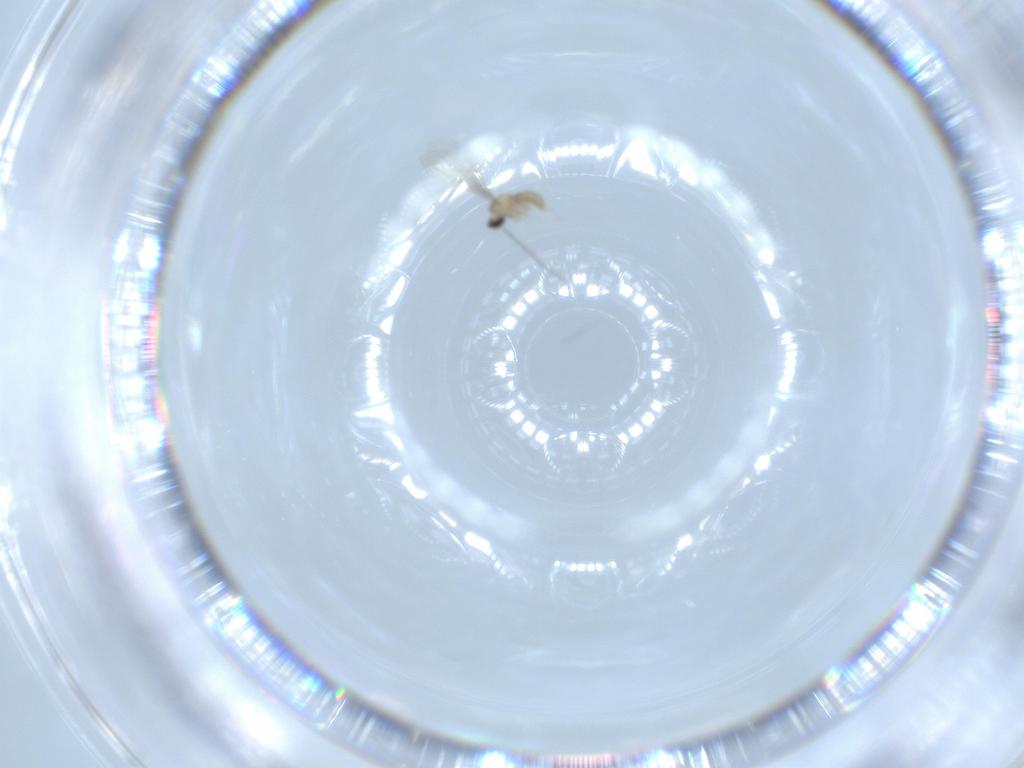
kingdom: Animalia
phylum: Arthropoda
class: Insecta
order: Diptera
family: Cecidomyiidae
